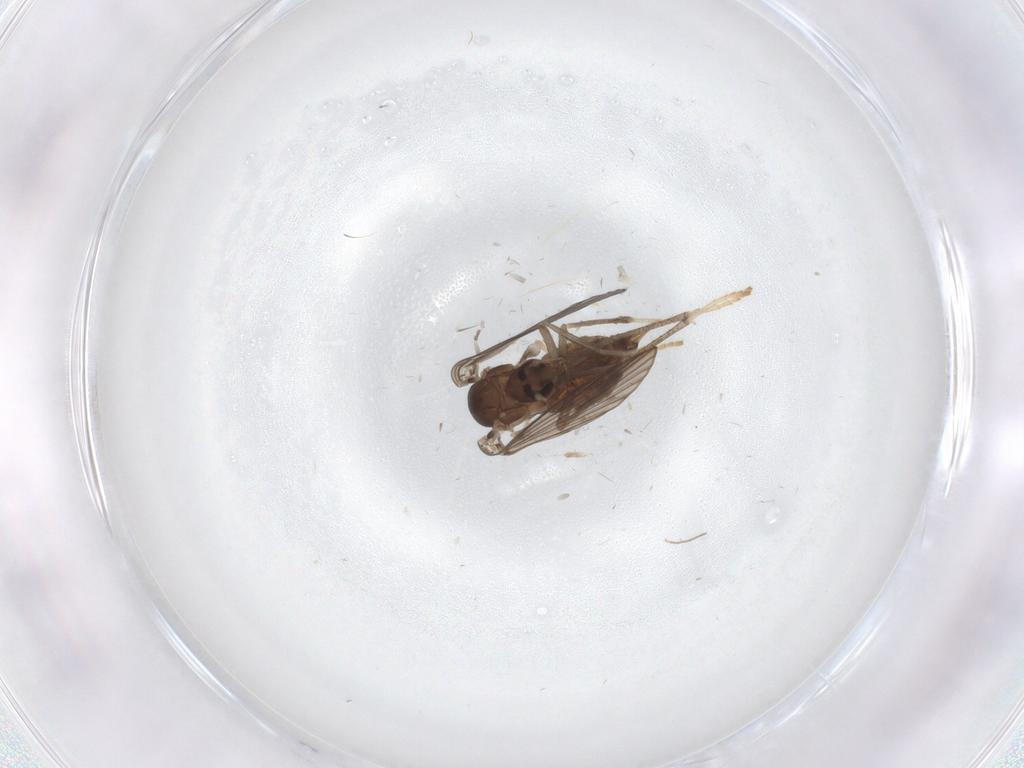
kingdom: Animalia
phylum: Arthropoda
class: Insecta
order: Diptera
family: Psychodidae
